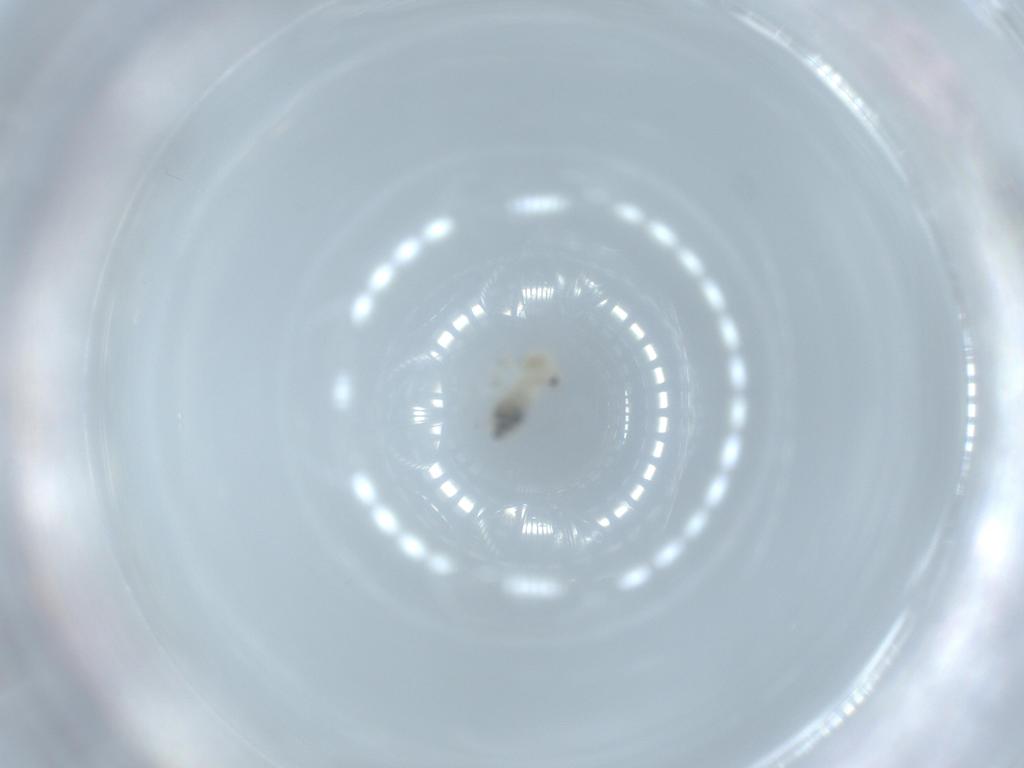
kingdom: Animalia
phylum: Arthropoda
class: Insecta
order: Psocodea
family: Caeciliusidae
